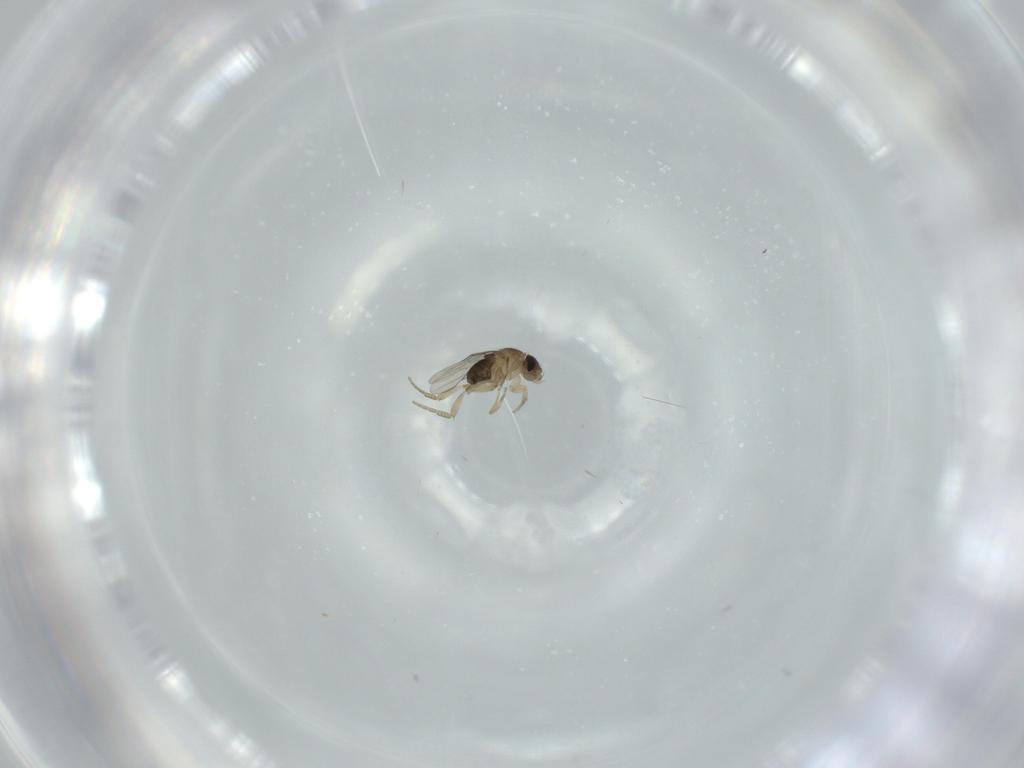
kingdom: Animalia
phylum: Arthropoda
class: Insecta
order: Diptera
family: Phoridae
